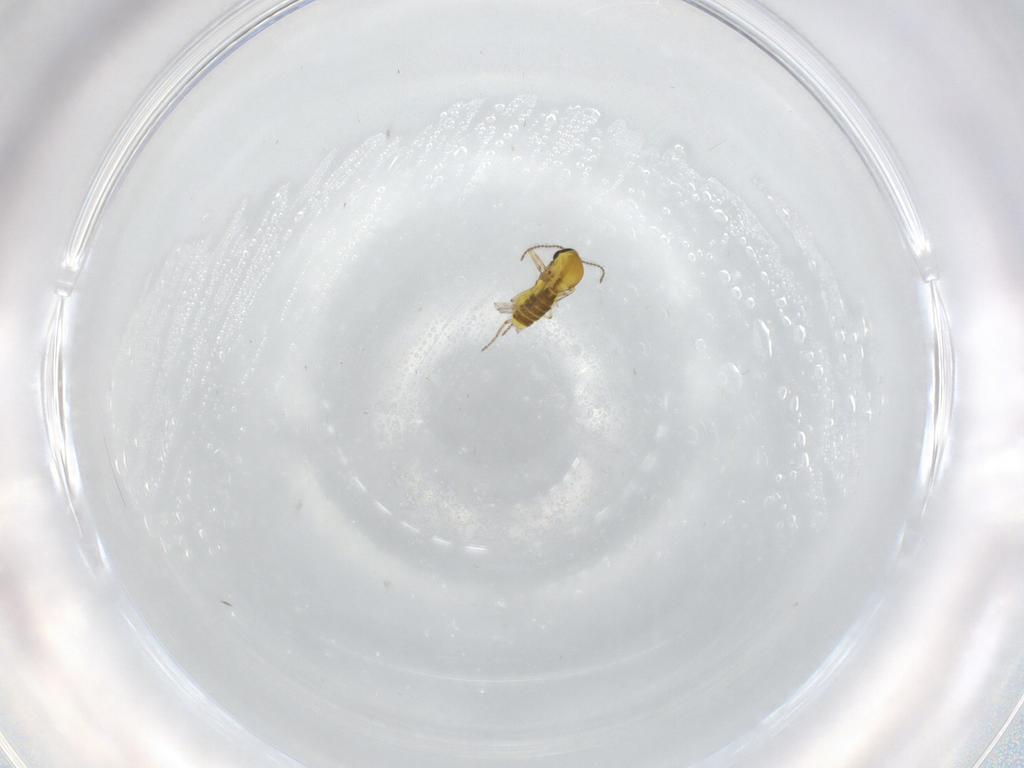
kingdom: Animalia
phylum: Arthropoda
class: Insecta
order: Diptera
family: Ceratopogonidae
